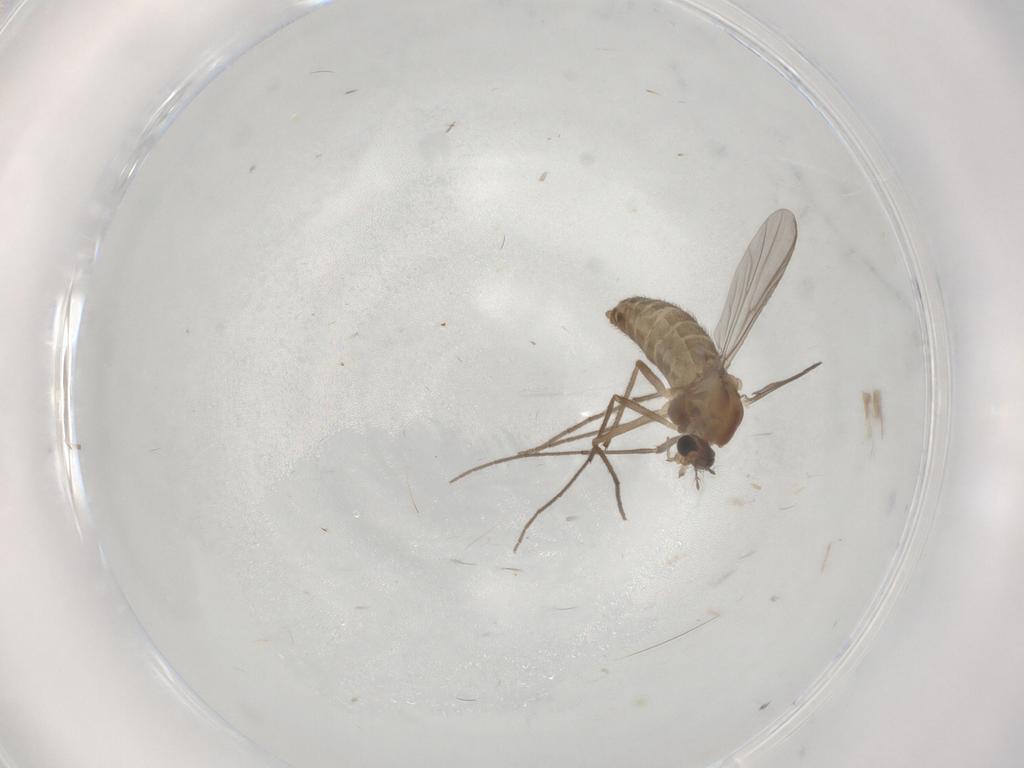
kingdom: Animalia
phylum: Arthropoda
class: Insecta
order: Diptera
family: Chironomidae
